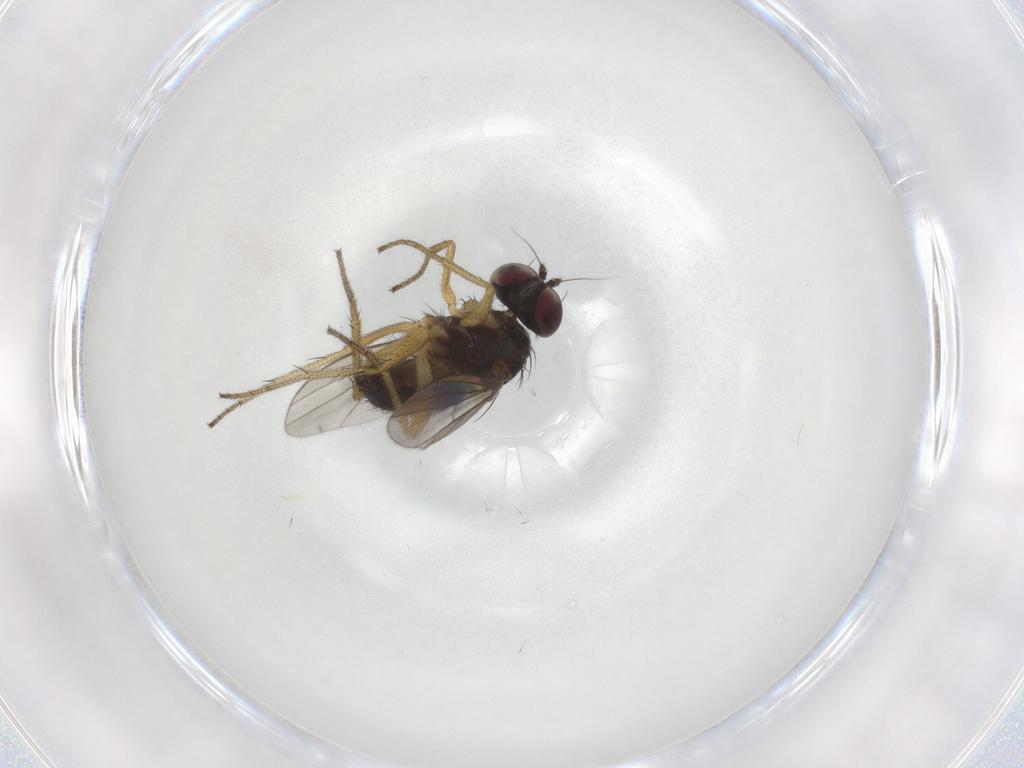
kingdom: Animalia
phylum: Arthropoda
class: Insecta
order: Diptera
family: Dolichopodidae
